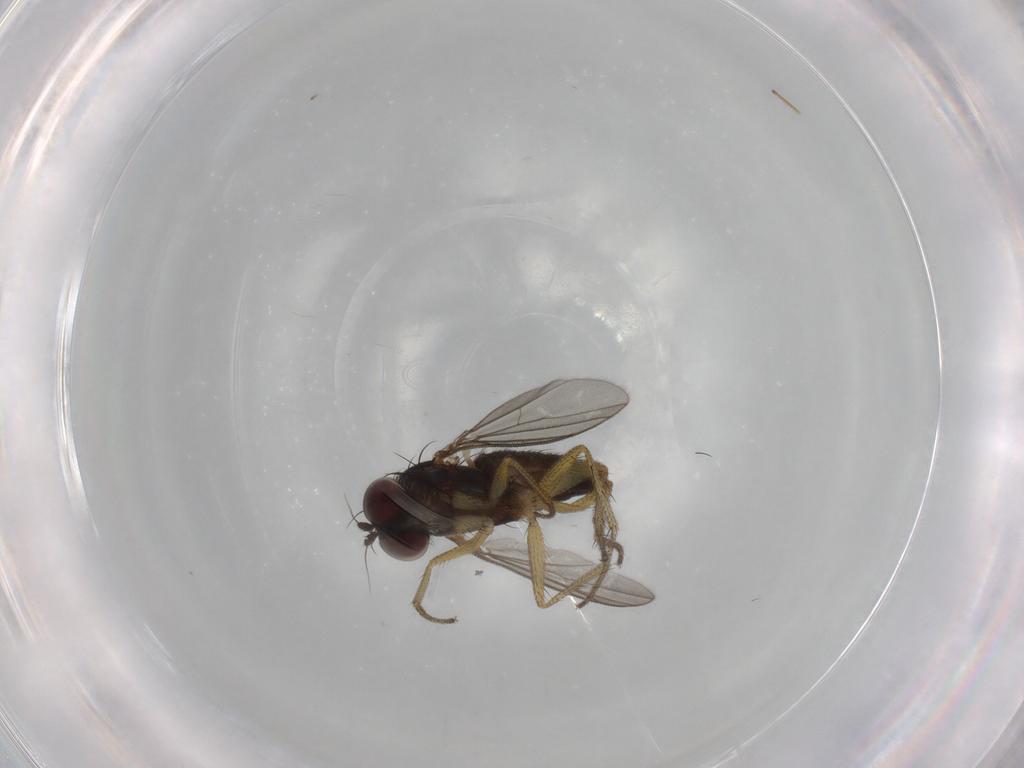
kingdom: Animalia
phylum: Arthropoda
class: Insecta
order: Diptera
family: Dolichopodidae
